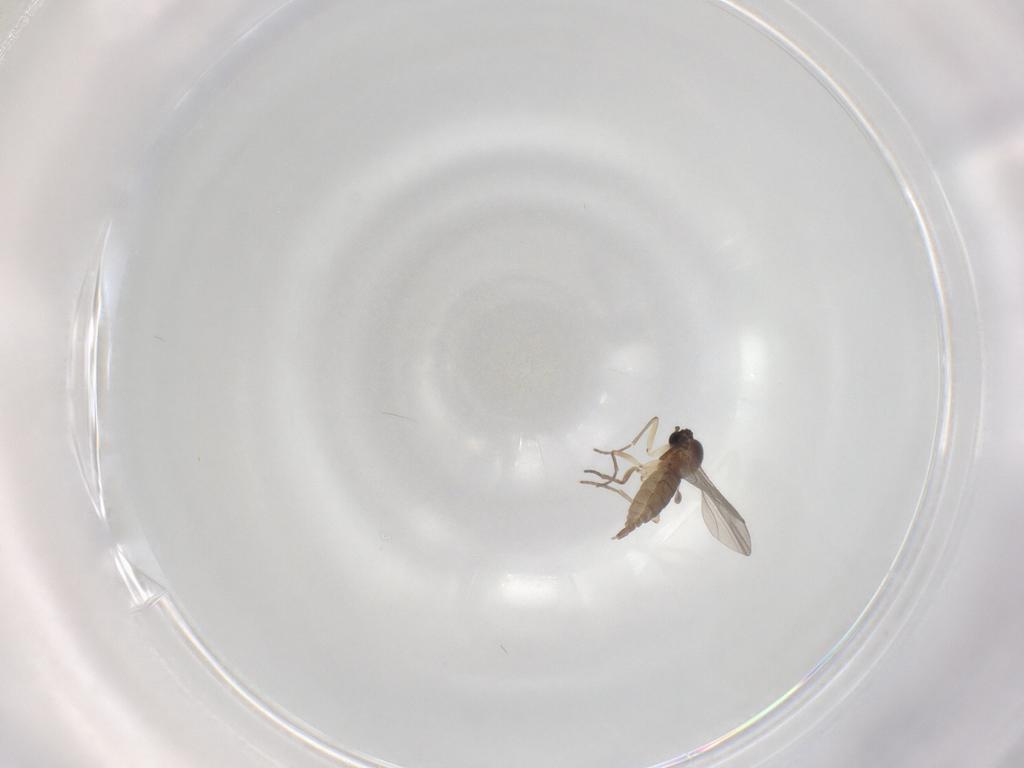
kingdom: Animalia
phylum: Arthropoda
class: Insecta
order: Diptera
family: Sciaridae
